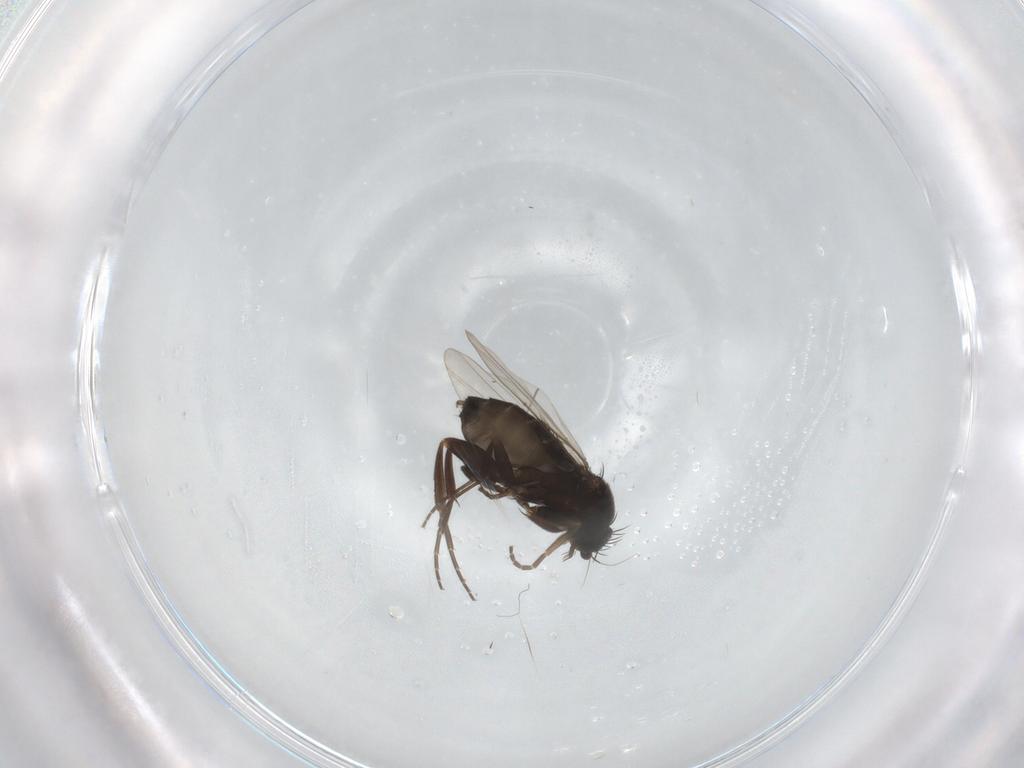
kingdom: Animalia
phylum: Arthropoda
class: Insecta
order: Diptera
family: Phoridae
